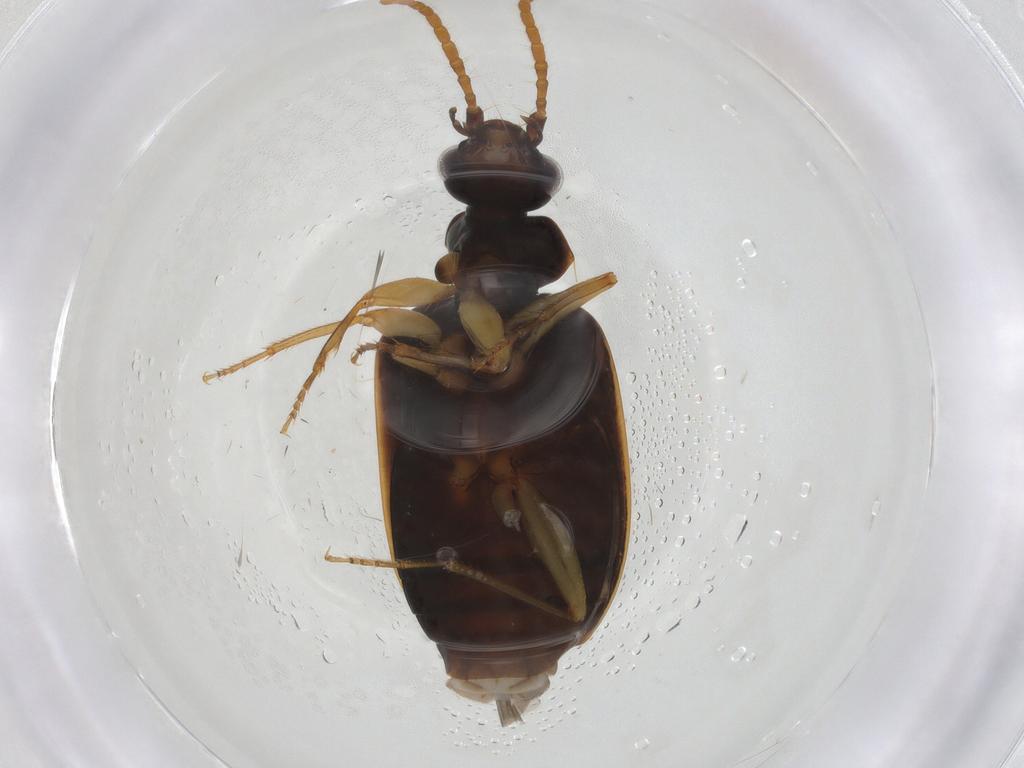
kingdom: Animalia
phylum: Arthropoda
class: Insecta
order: Coleoptera
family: Carabidae
